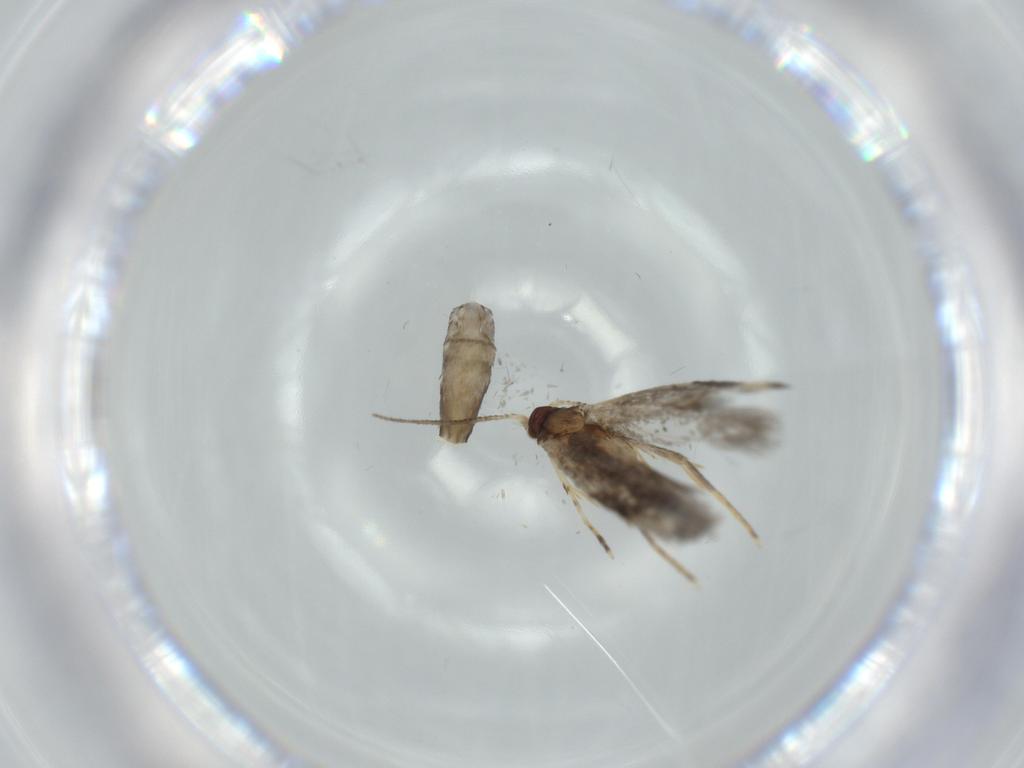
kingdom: Animalia
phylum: Arthropoda
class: Insecta
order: Lepidoptera
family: Tineidae
